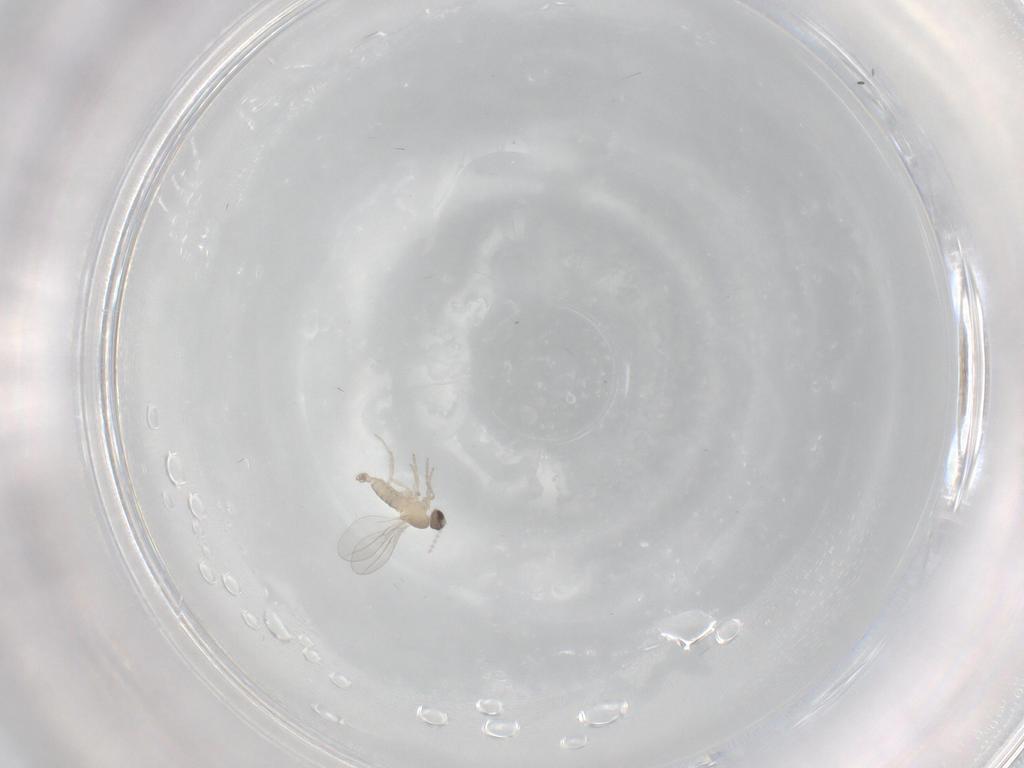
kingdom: Animalia
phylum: Arthropoda
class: Insecta
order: Diptera
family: Cecidomyiidae
